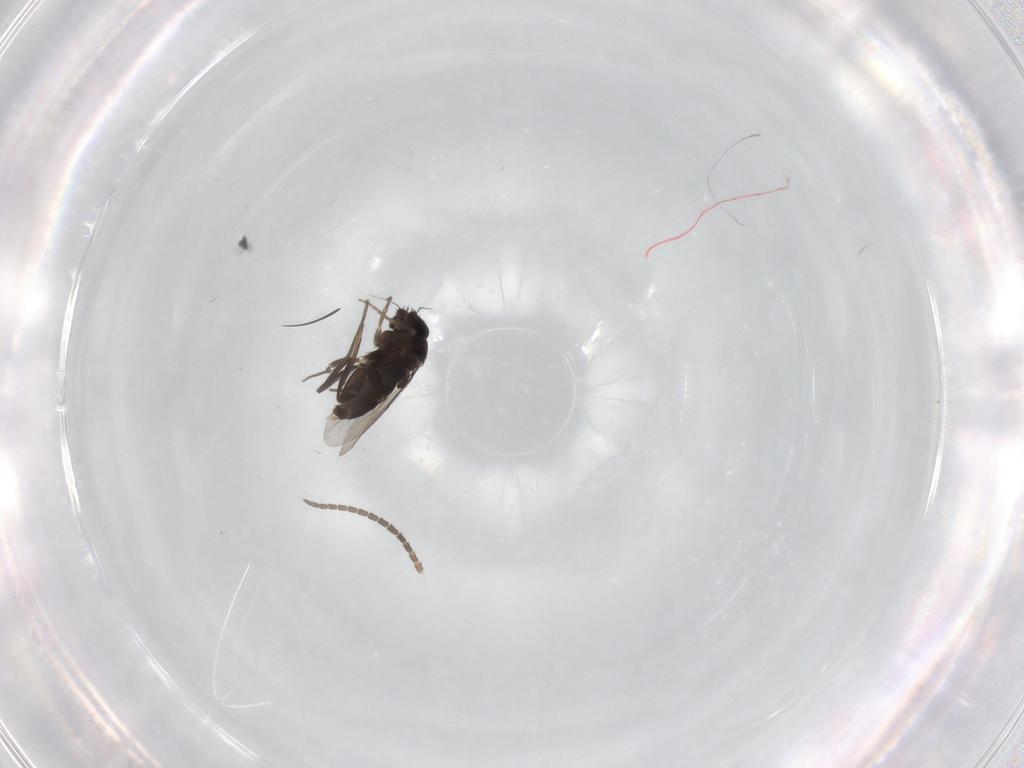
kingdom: Animalia
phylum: Arthropoda
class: Insecta
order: Diptera
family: Phoridae
